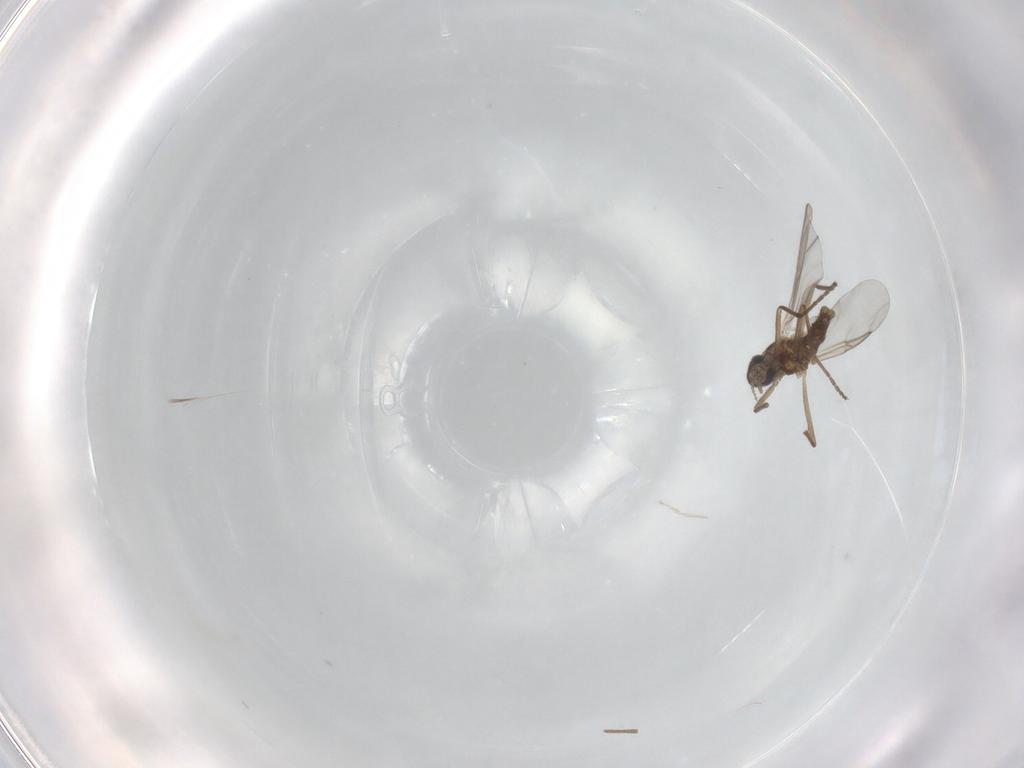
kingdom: Animalia
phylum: Arthropoda
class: Insecta
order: Diptera
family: Cecidomyiidae
